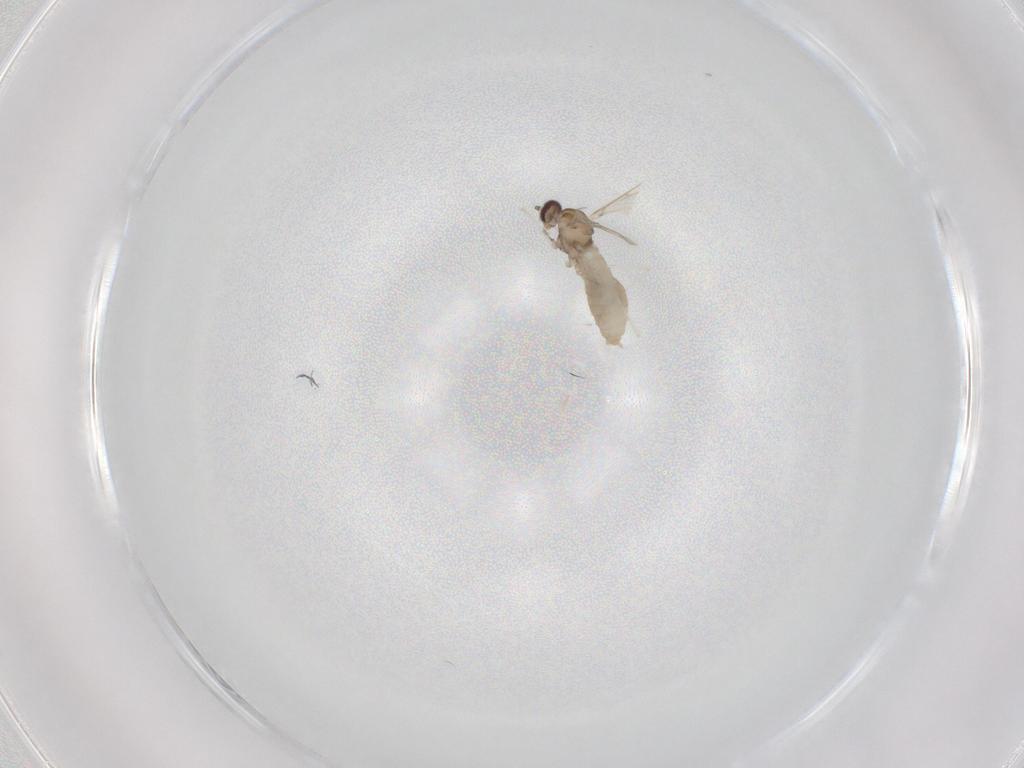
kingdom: Animalia
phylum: Arthropoda
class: Insecta
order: Diptera
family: Cecidomyiidae
